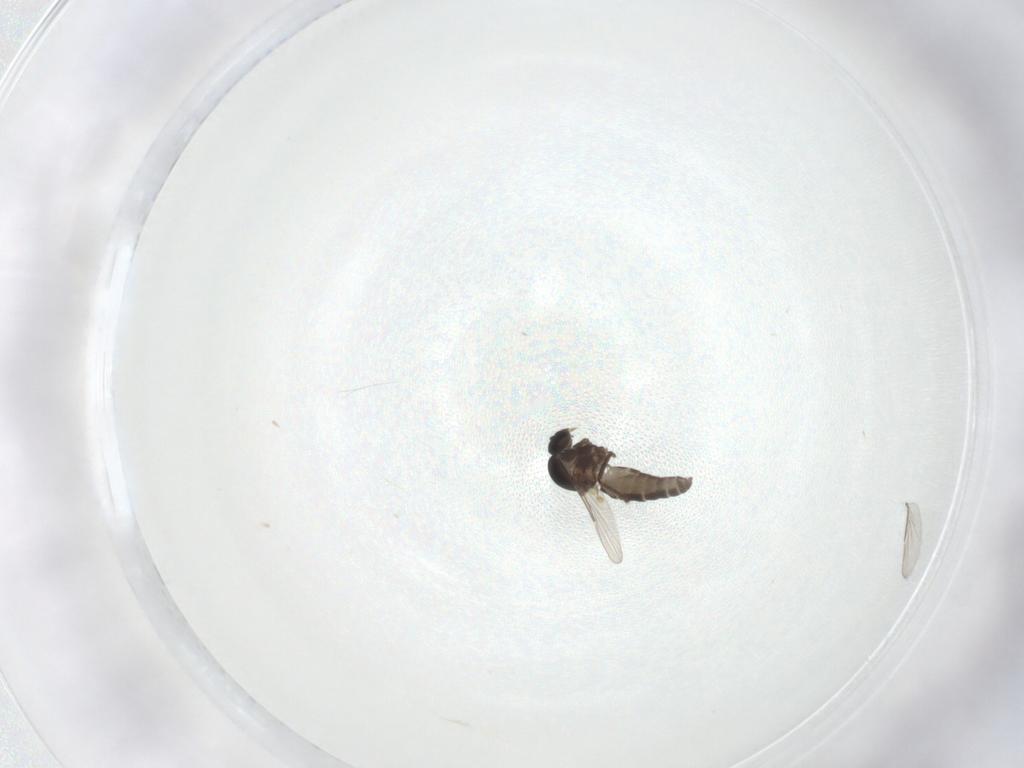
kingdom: Animalia
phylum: Arthropoda
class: Insecta
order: Diptera
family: Ceratopogonidae
